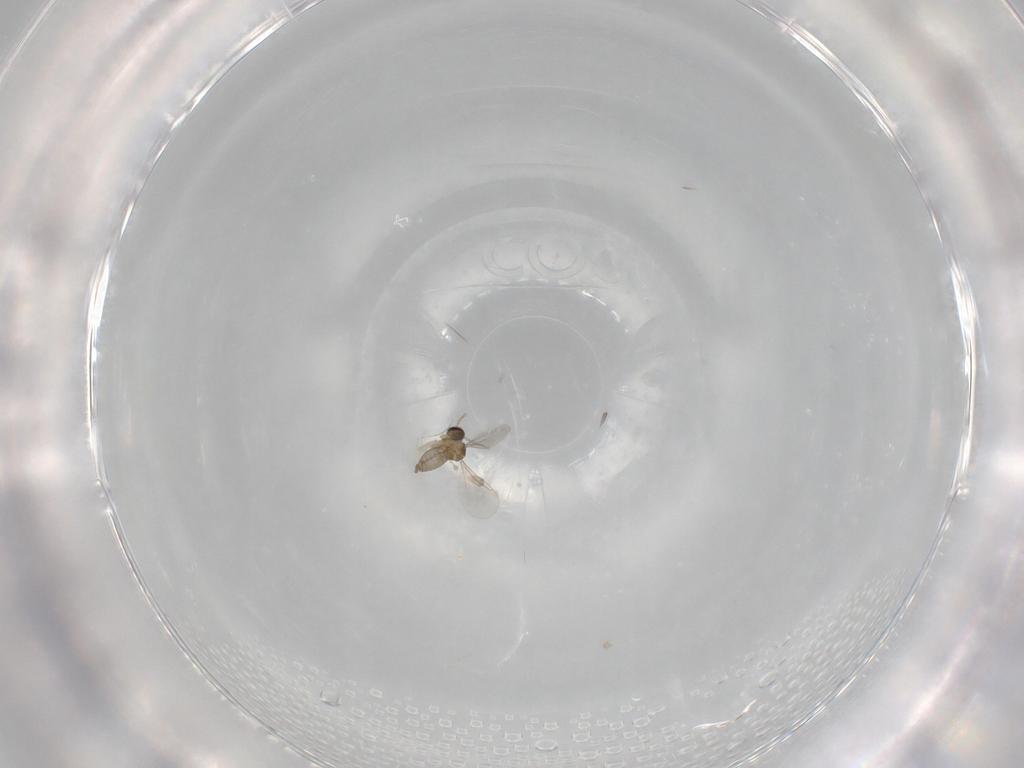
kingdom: Animalia
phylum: Arthropoda
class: Insecta
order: Diptera
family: Cecidomyiidae
